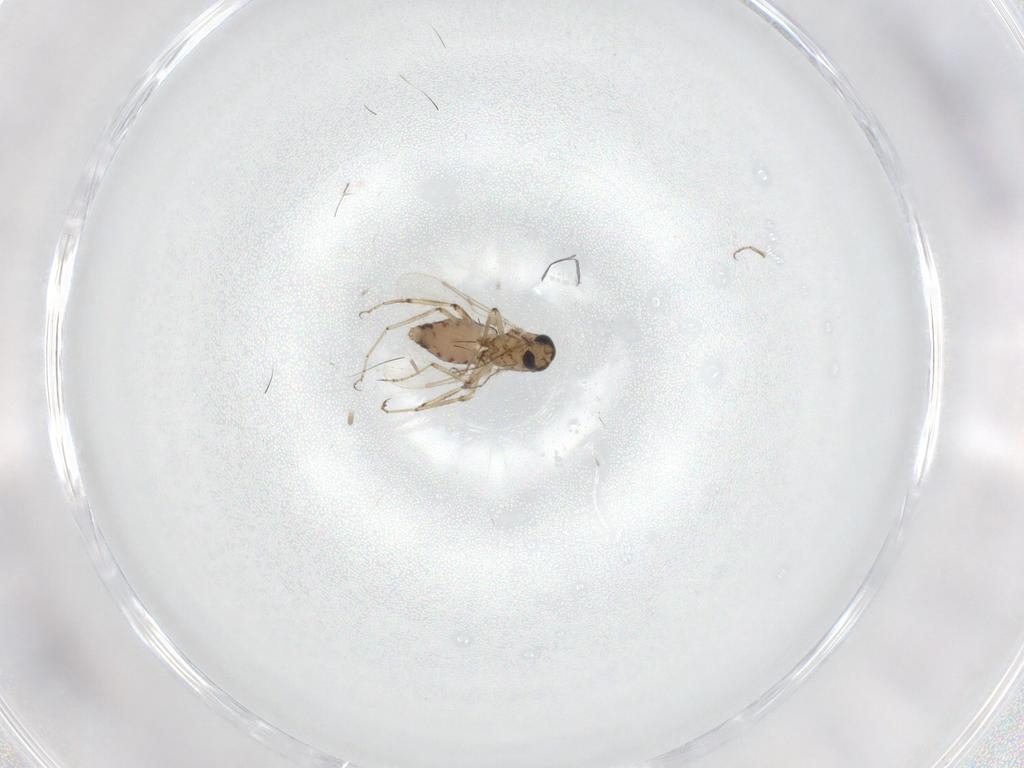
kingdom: Animalia
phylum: Arthropoda
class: Insecta
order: Diptera
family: Ceratopogonidae
